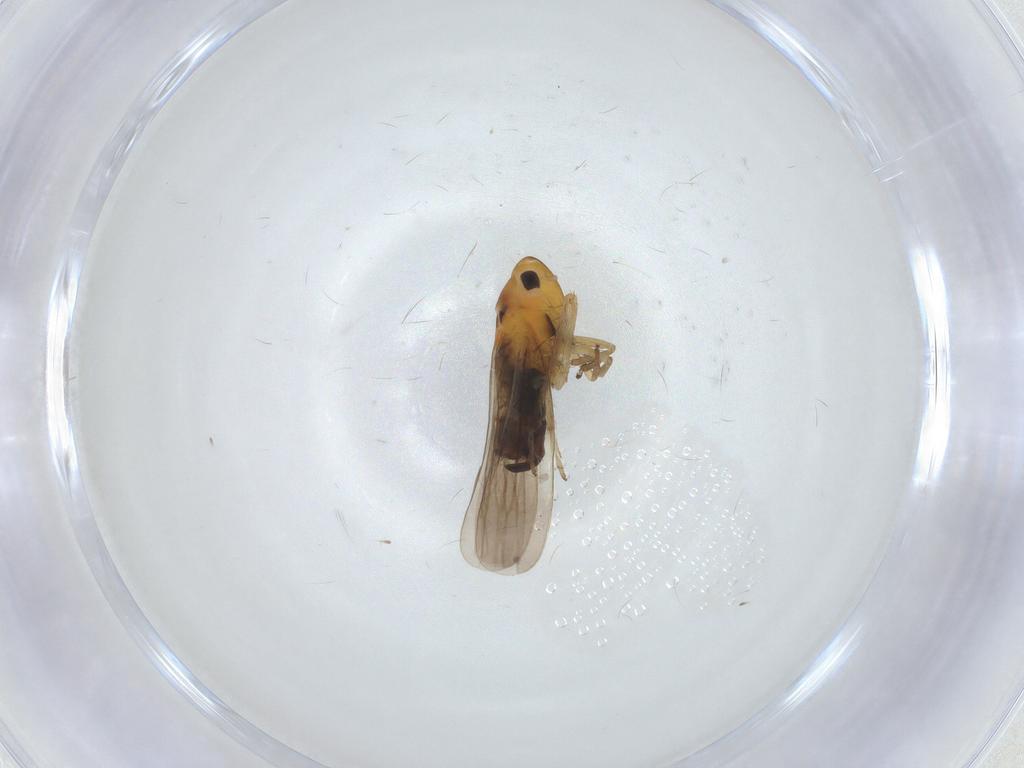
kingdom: Animalia
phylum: Arthropoda
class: Insecta
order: Hemiptera
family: Cicadellidae
